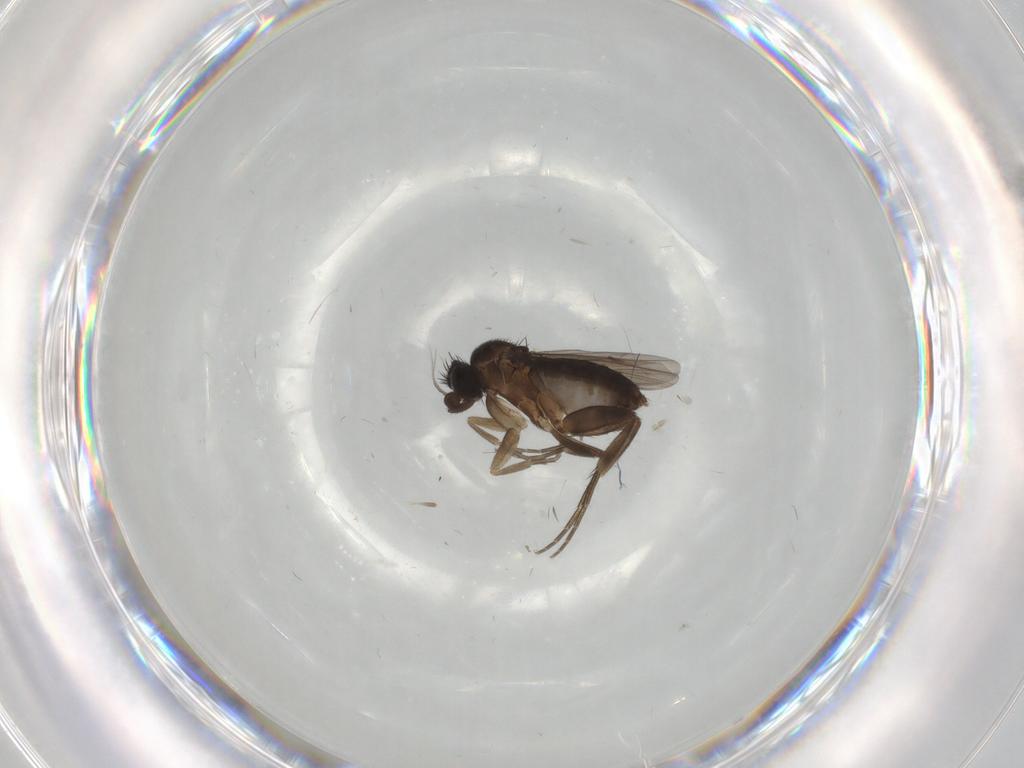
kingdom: Animalia
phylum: Arthropoda
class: Insecta
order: Diptera
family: Phoridae
